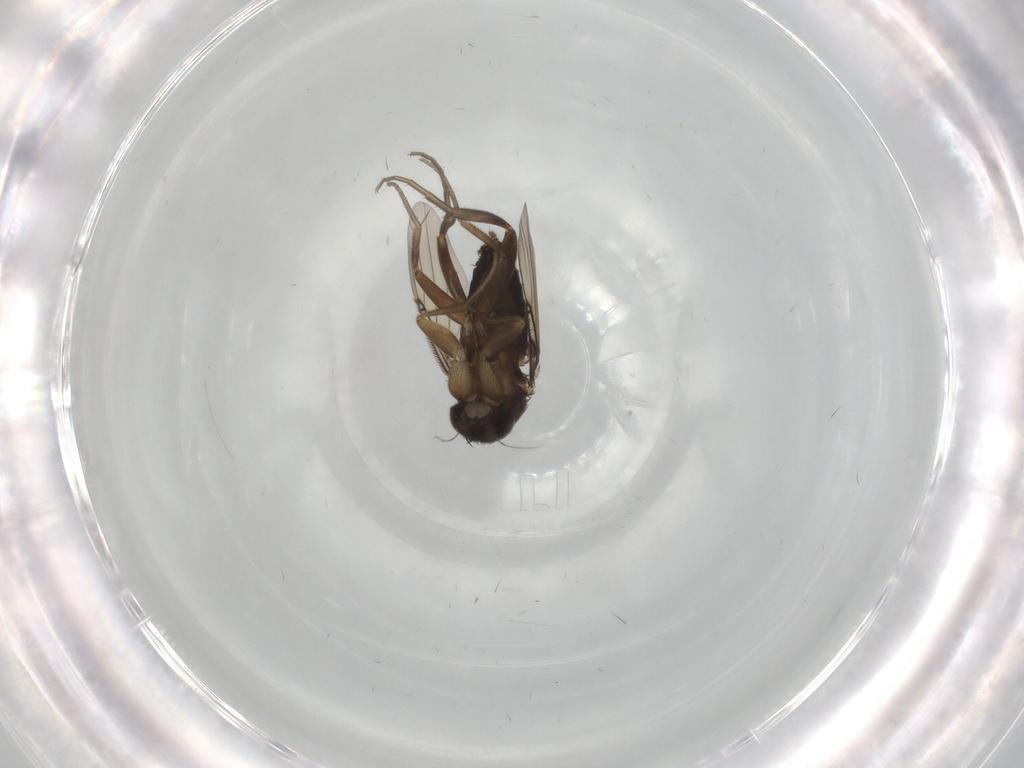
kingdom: Animalia
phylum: Arthropoda
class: Insecta
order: Diptera
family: Phoridae
